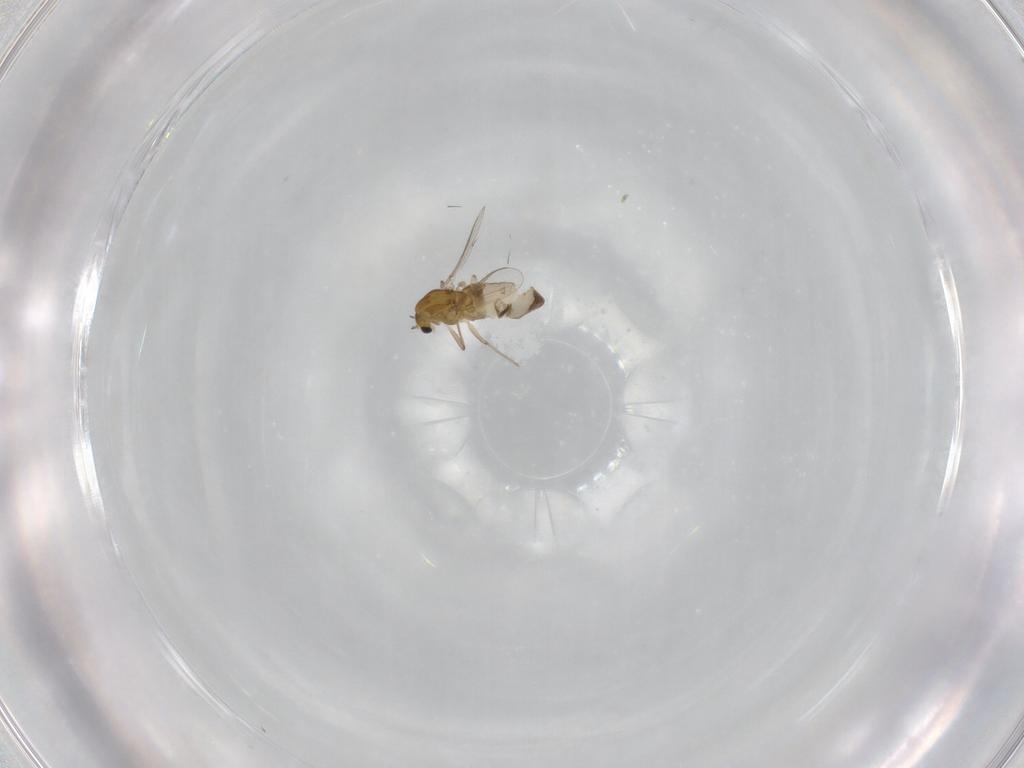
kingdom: Animalia
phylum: Arthropoda
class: Insecta
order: Diptera
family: Chironomidae
